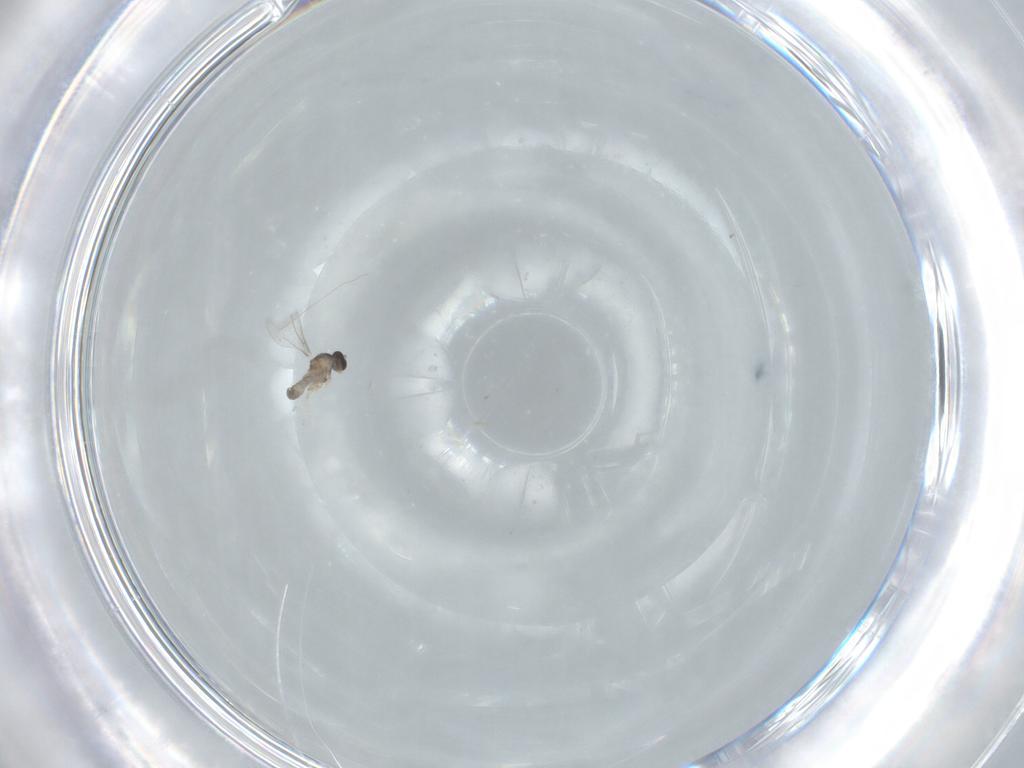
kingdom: Animalia
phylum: Arthropoda
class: Insecta
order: Diptera
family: Cecidomyiidae
